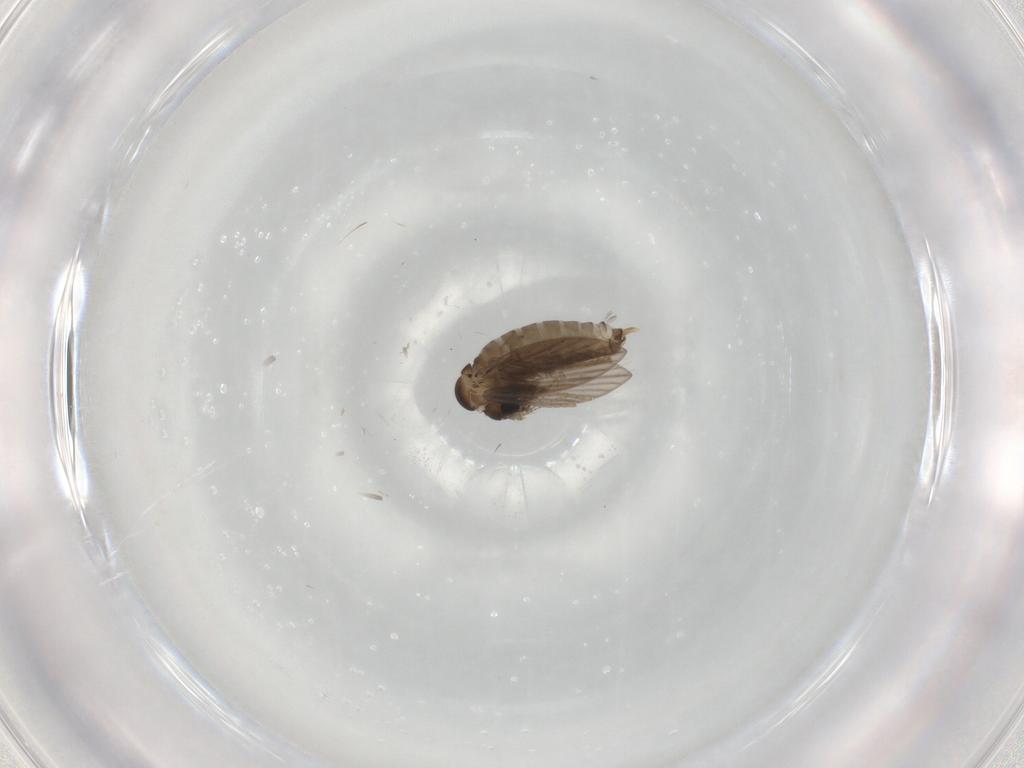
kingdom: Animalia
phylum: Arthropoda
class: Insecta
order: Diptera
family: Psychodidae
